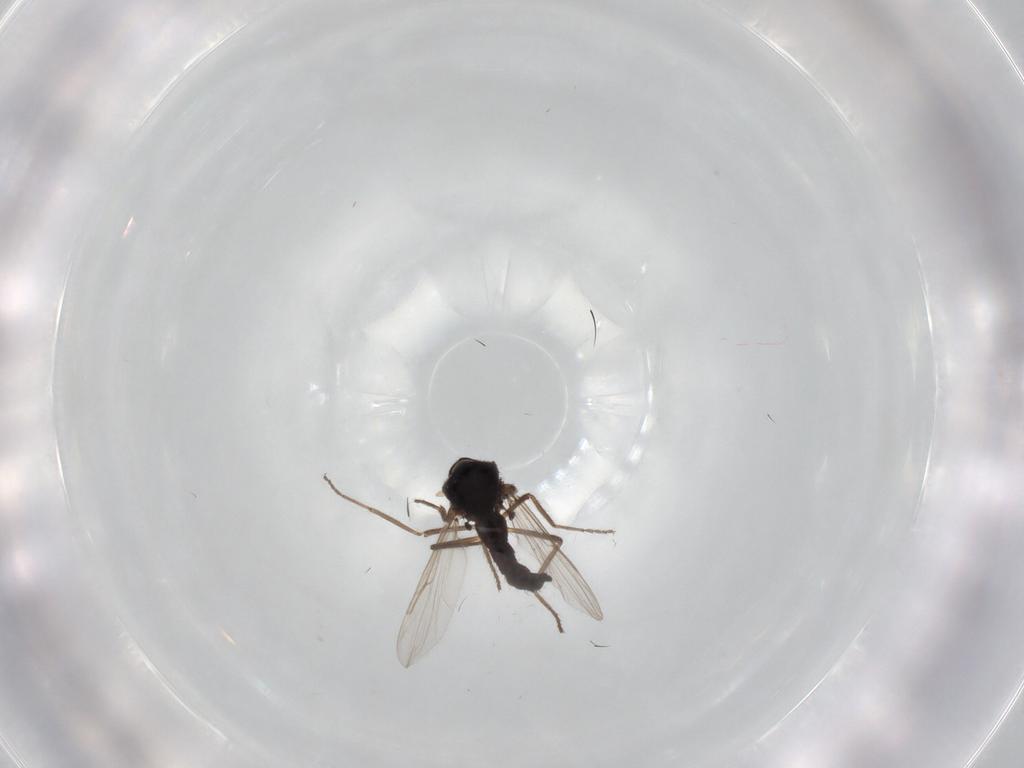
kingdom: Animalia
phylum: Arthropoda
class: Insecta
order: Diptera
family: Ceratopogonidae
